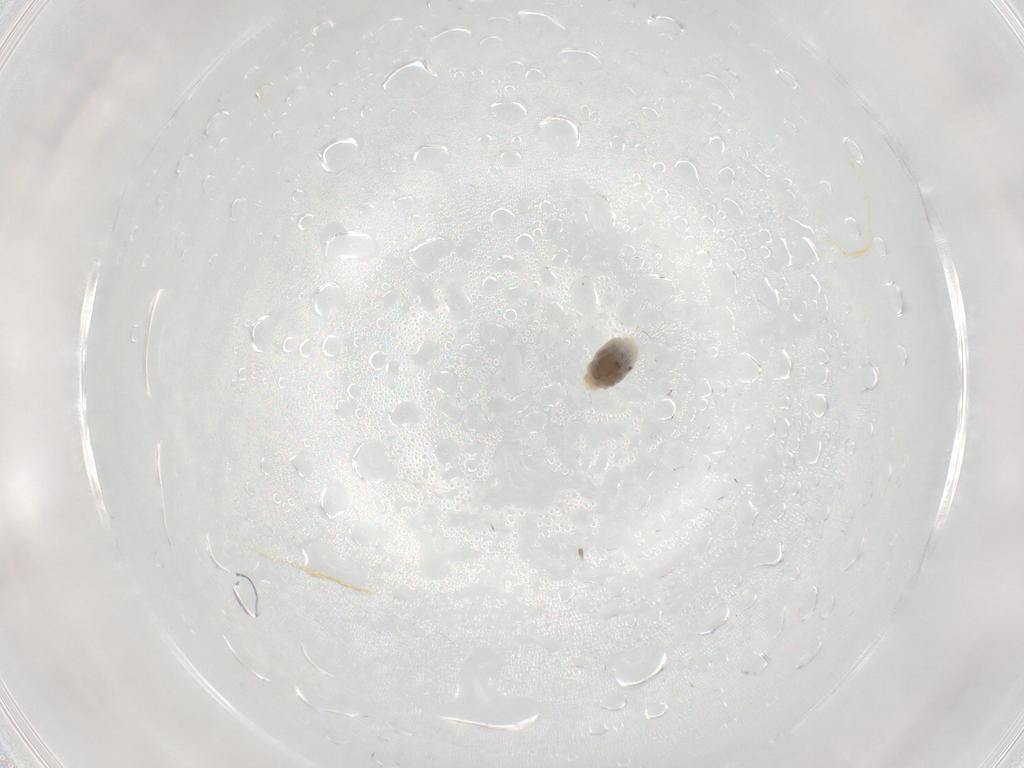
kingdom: Animalia
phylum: Arthropoda
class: Insecta
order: Hemiptera
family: Aleyrodidae
